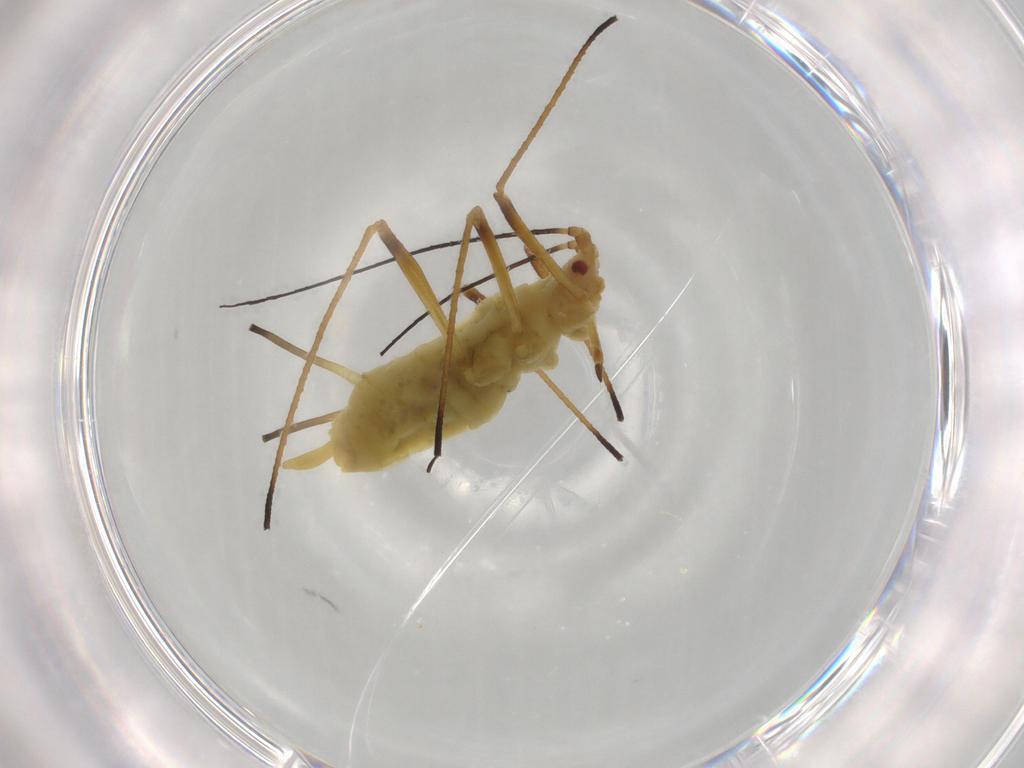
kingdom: Animalia
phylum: Arthropoda
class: Insecta
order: Hemiptera
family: Aphididae
